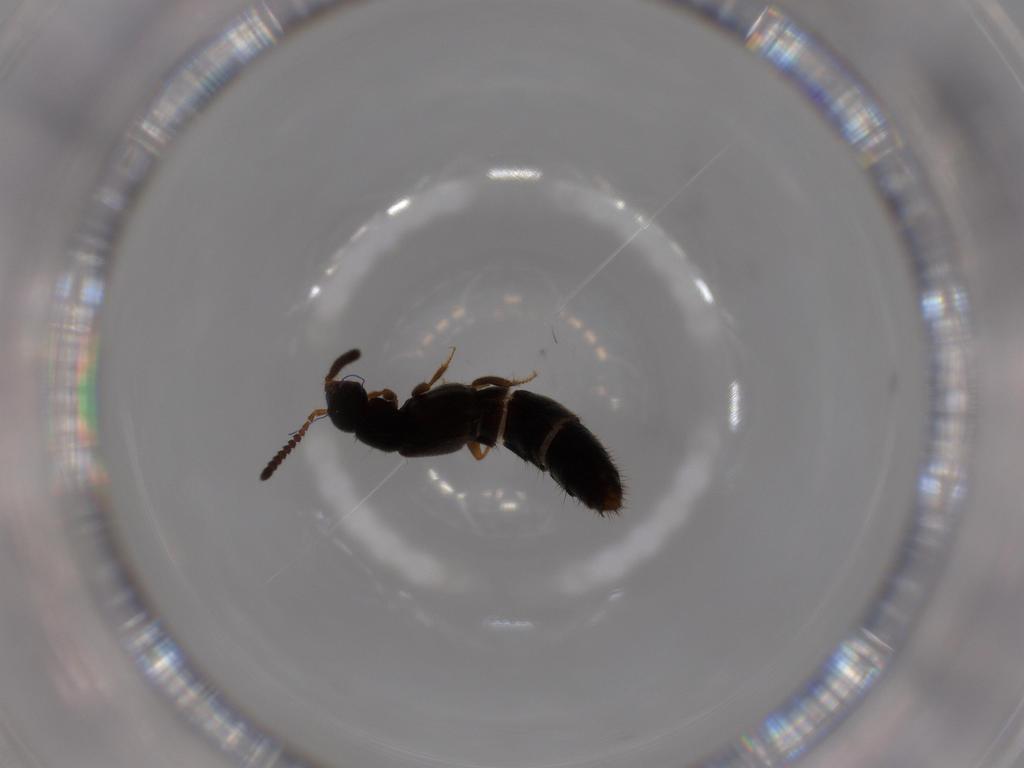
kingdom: Animalia
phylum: Arthropoda
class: Insecta
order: Coleoptera
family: Staphylinidae
